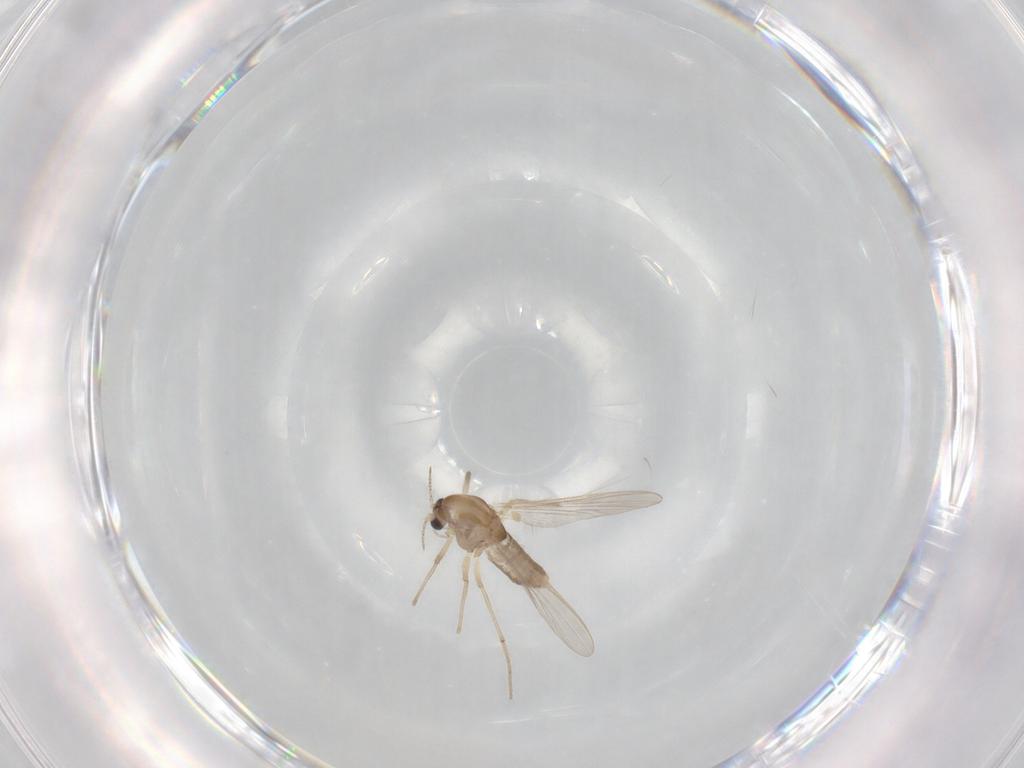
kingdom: Animalia
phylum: Arthropoda
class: Insecta
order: Diptera
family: Chironomidae
